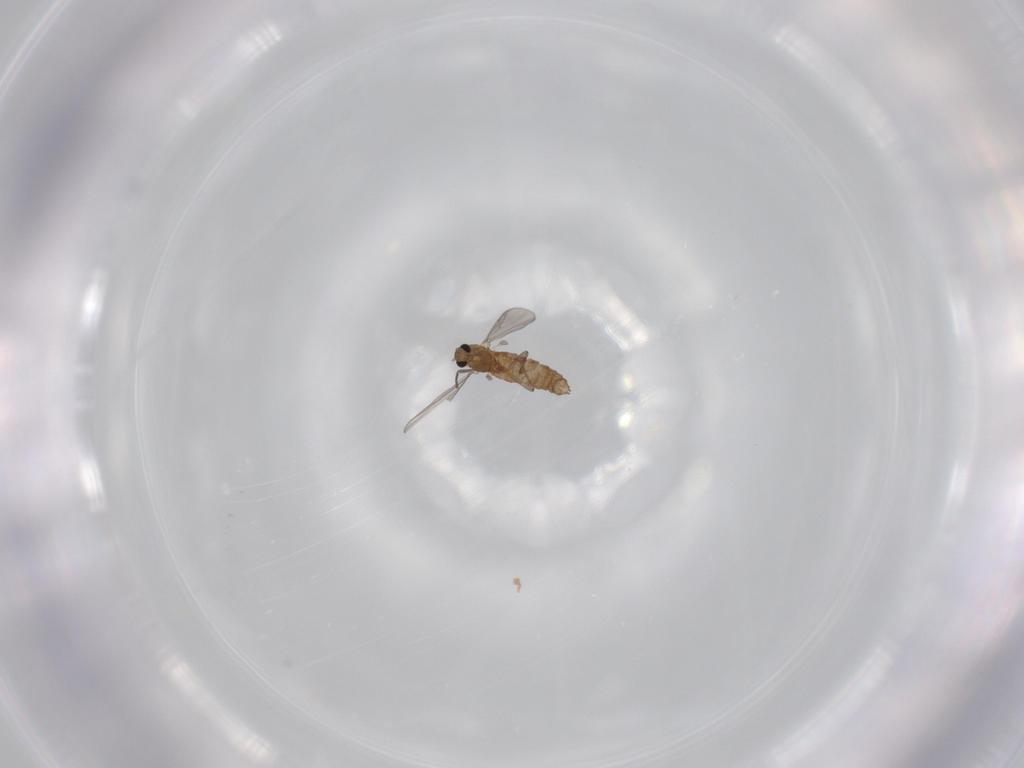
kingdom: Animalia
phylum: Arthropoda
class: Insecta
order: Diptera
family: Chironomidae
